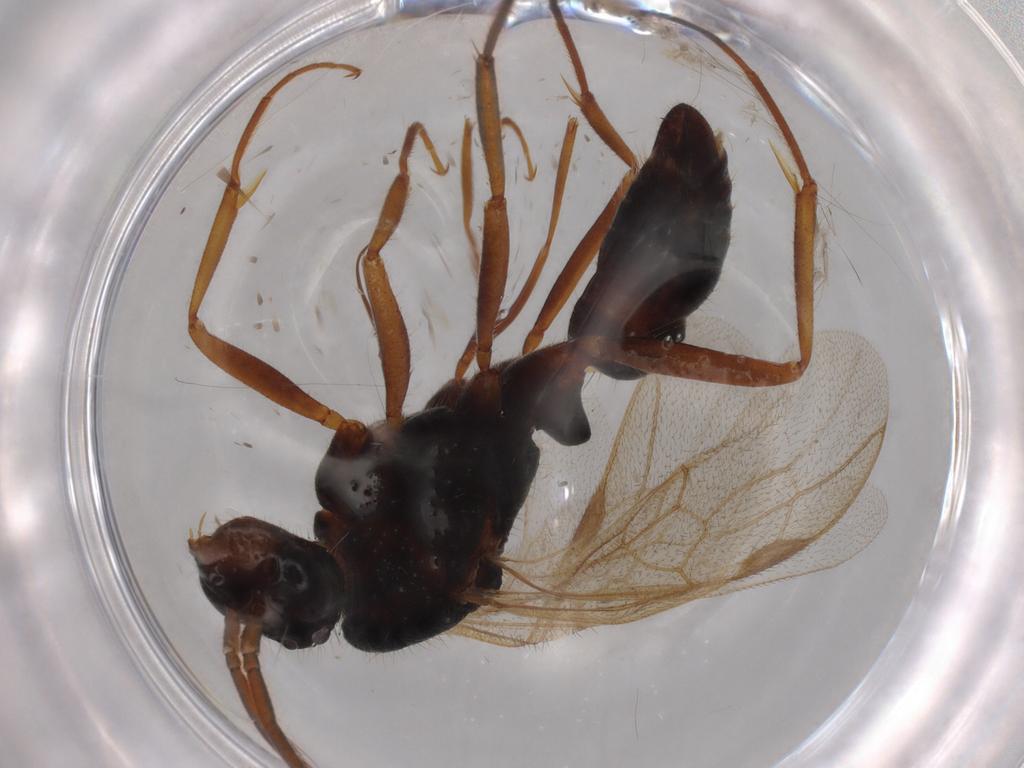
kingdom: Animalia
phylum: Arthropoda
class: Insecta
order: Hymenoptera
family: Formicidae
